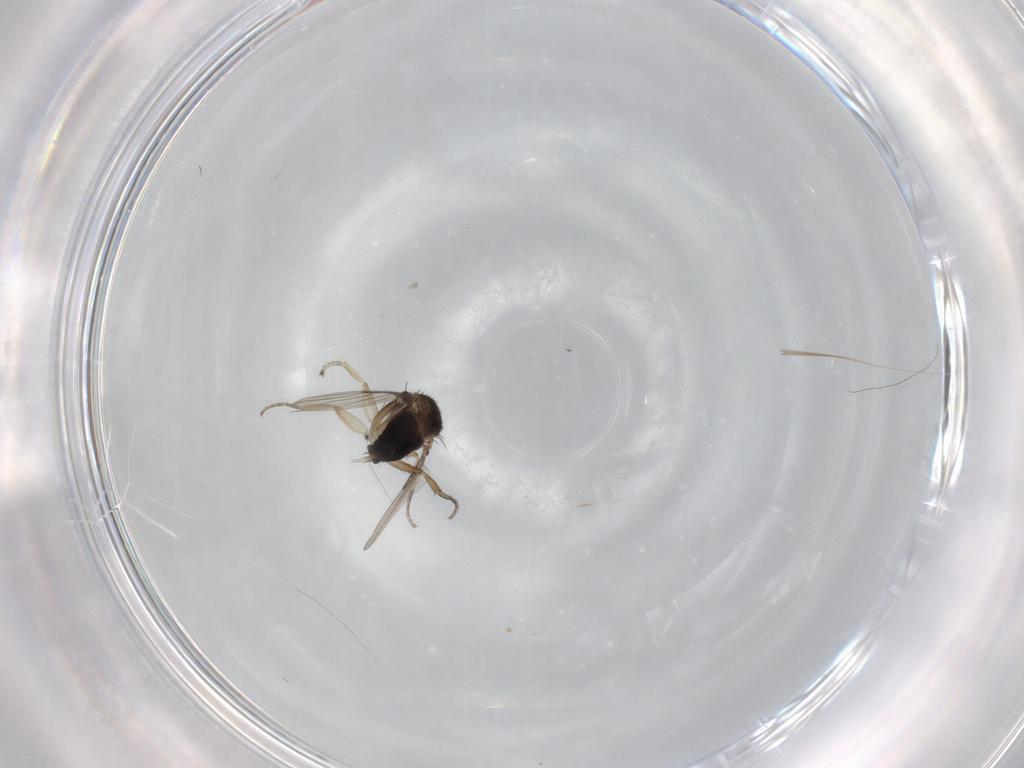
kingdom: Animalia
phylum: Arthropoda
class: Insecta
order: Diptera
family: Phoridae
